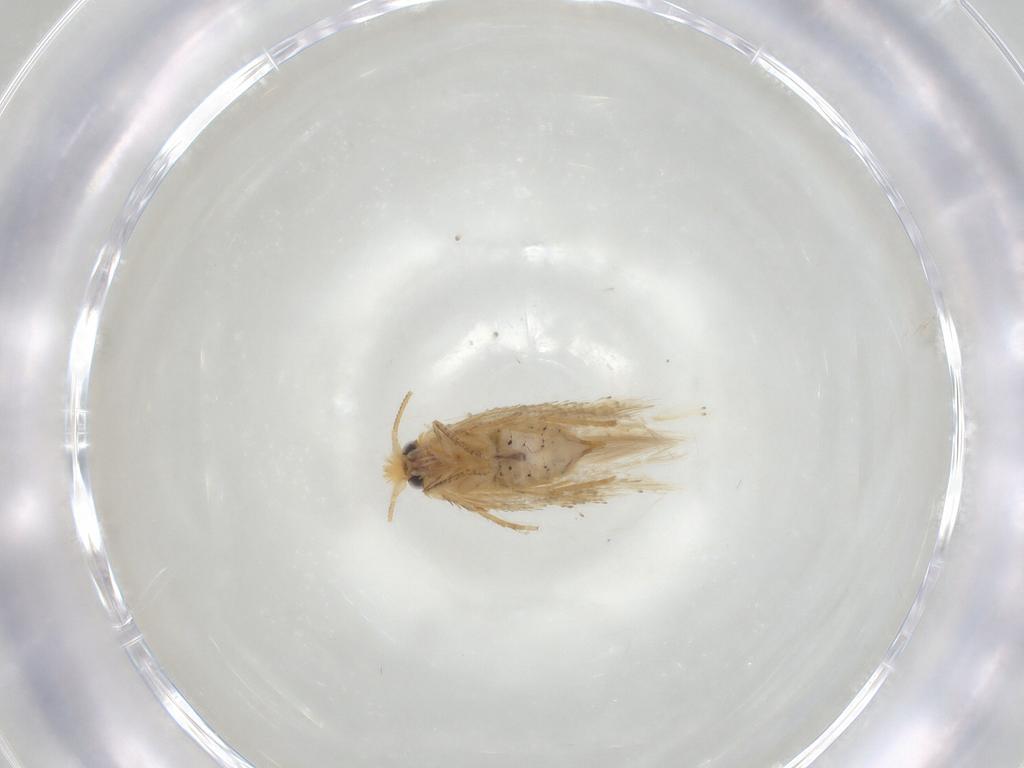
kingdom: Animalia
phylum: Arthropoda
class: Insecta
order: Lepidoptera
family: Nepticulidae
